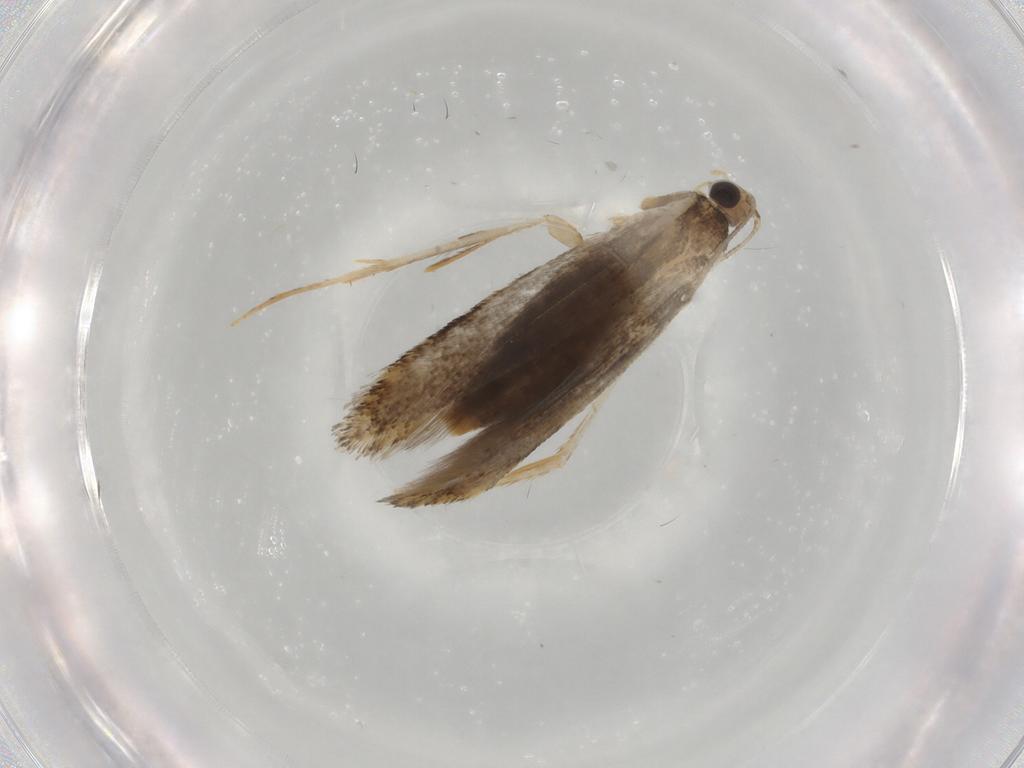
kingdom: Animalia
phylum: Arthropoda
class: Insecta
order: Lepidoptera
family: Tineidae
